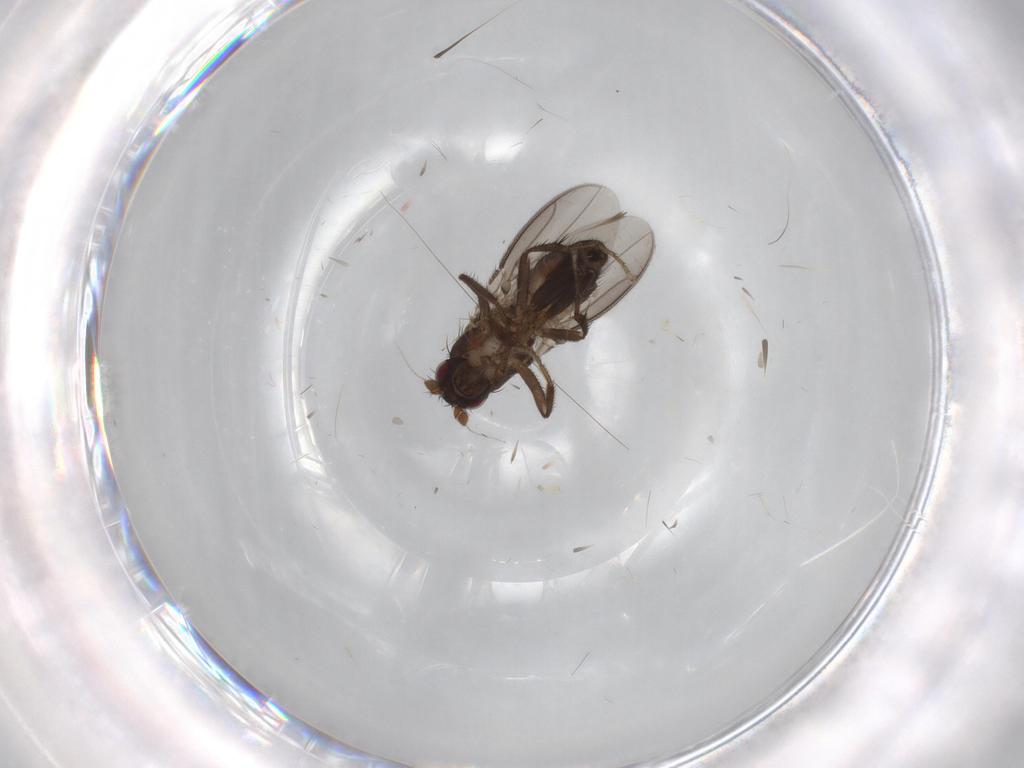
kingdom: Animalia
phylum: Arthropoda
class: Insecta
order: Diptera
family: Sphaeroceridae
